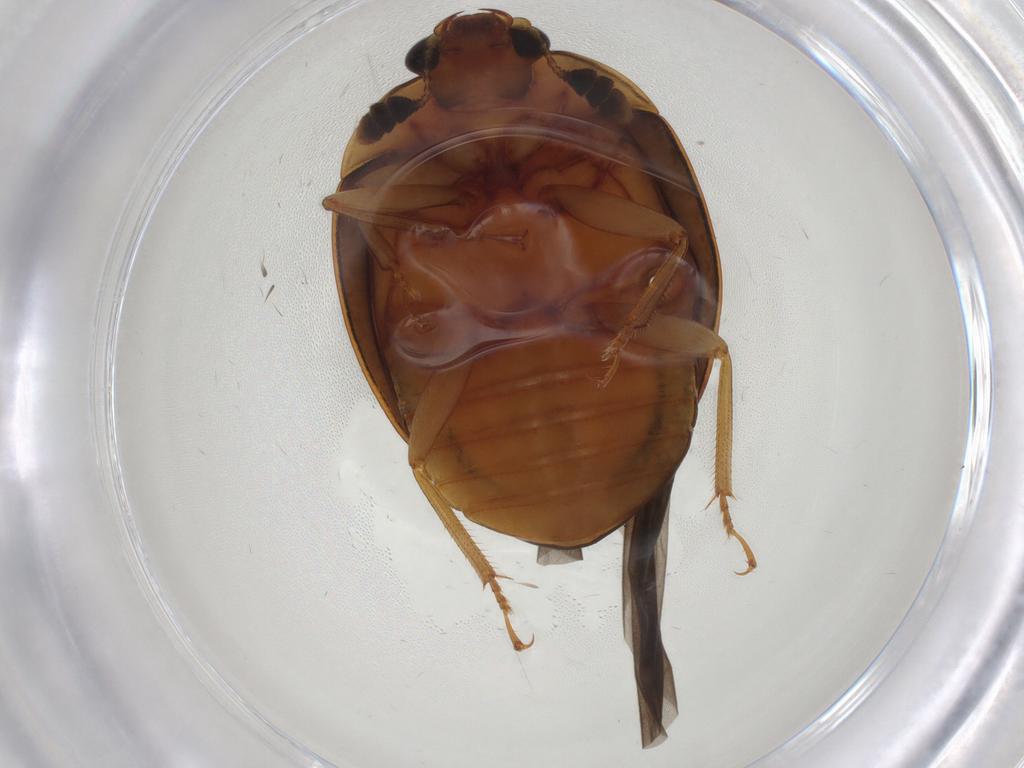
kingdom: Animalia
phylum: Arthropoda
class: Insecta
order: Coleoptera
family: Nitidulidae
